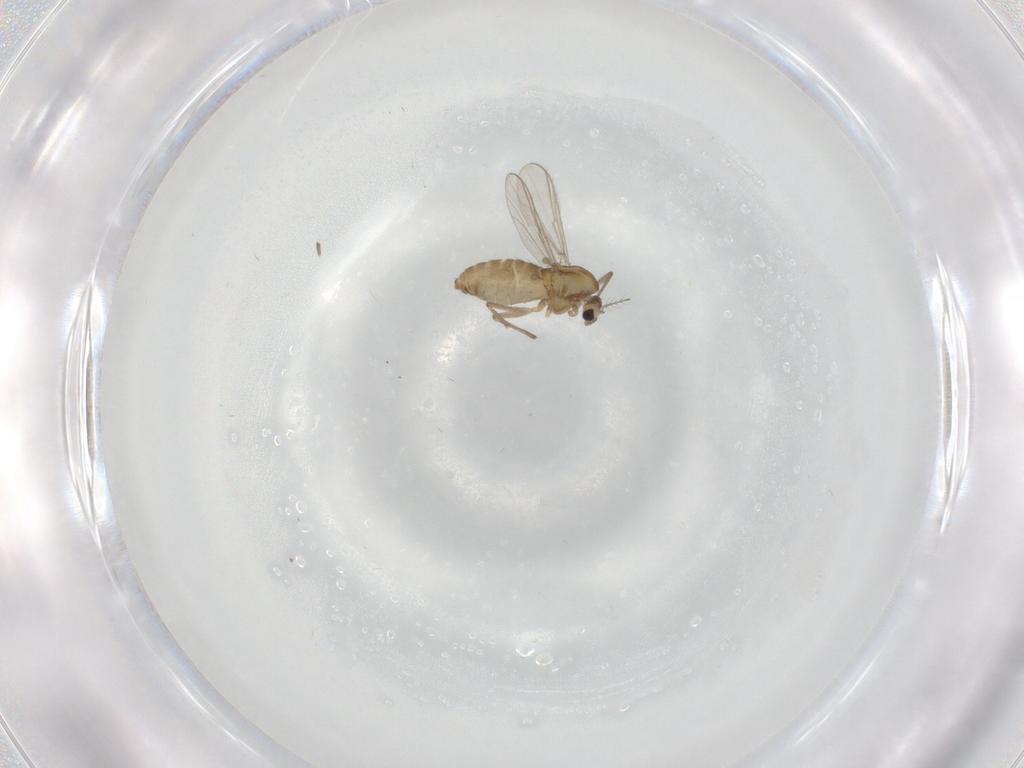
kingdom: Animalia
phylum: Arthropoda
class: Insecta
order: Diptera
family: Chironomidae
